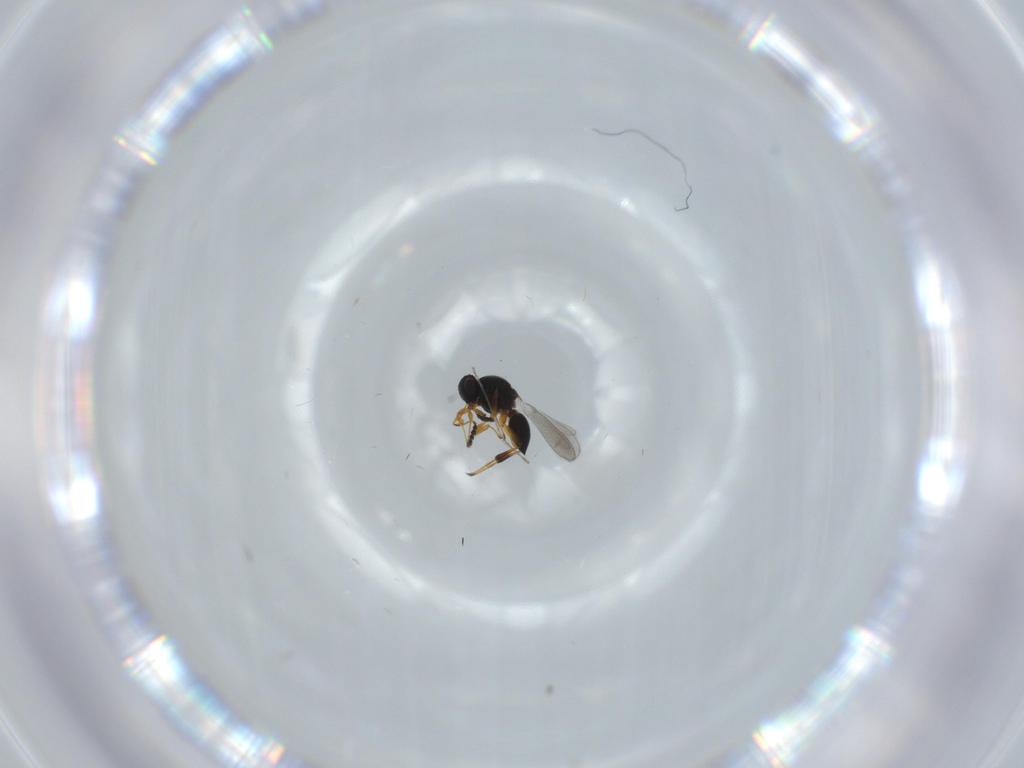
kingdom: Animalia
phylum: Arthropoda
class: Insecta
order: Hymenoptera
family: Platygastridae
